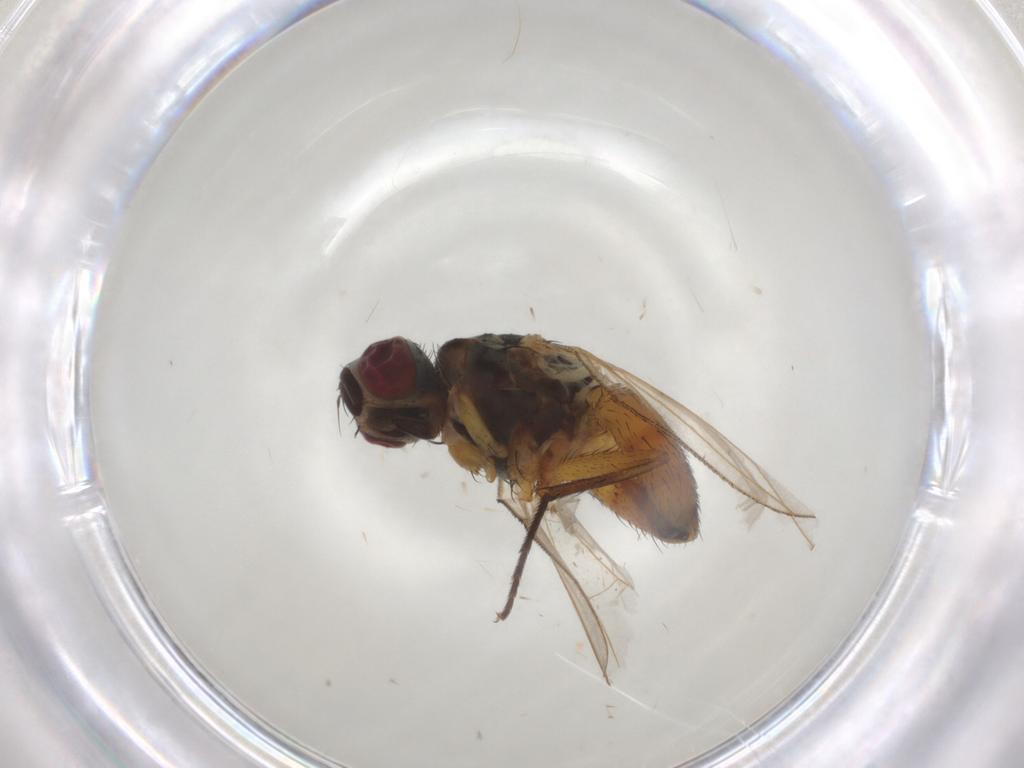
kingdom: Animalia
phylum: Arthropoda
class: Insecta
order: Diptera
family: Muscidae
